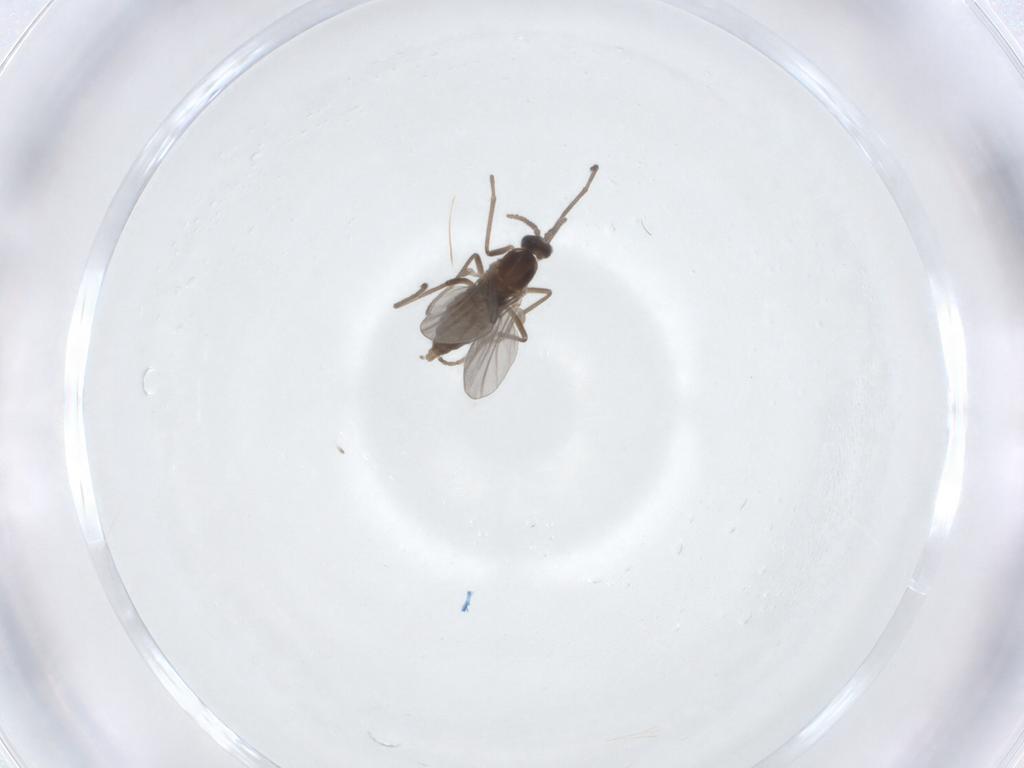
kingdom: Animalia
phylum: Arthropoda
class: Insecta
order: Diptera
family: Cecidomyiidae
